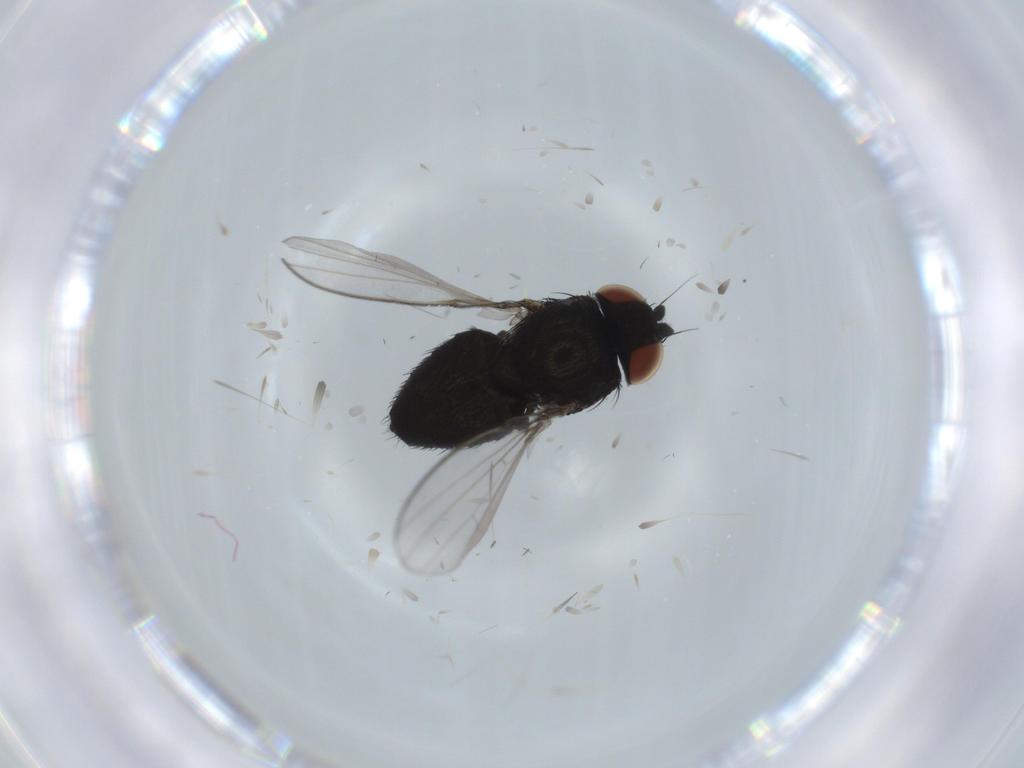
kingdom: Animalia
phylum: Arthropoda
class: Insecta
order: Diptera
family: Milichiidae
